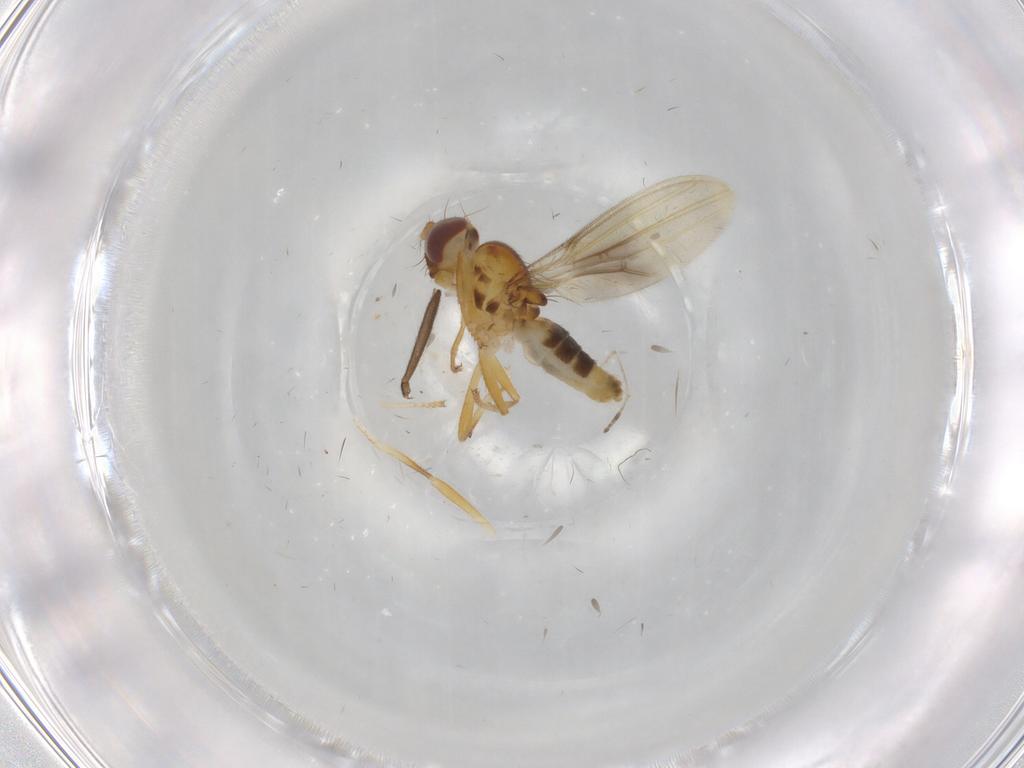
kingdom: Animalia
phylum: Arthropoda
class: Insecta
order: Diptera
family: Periscelididae
